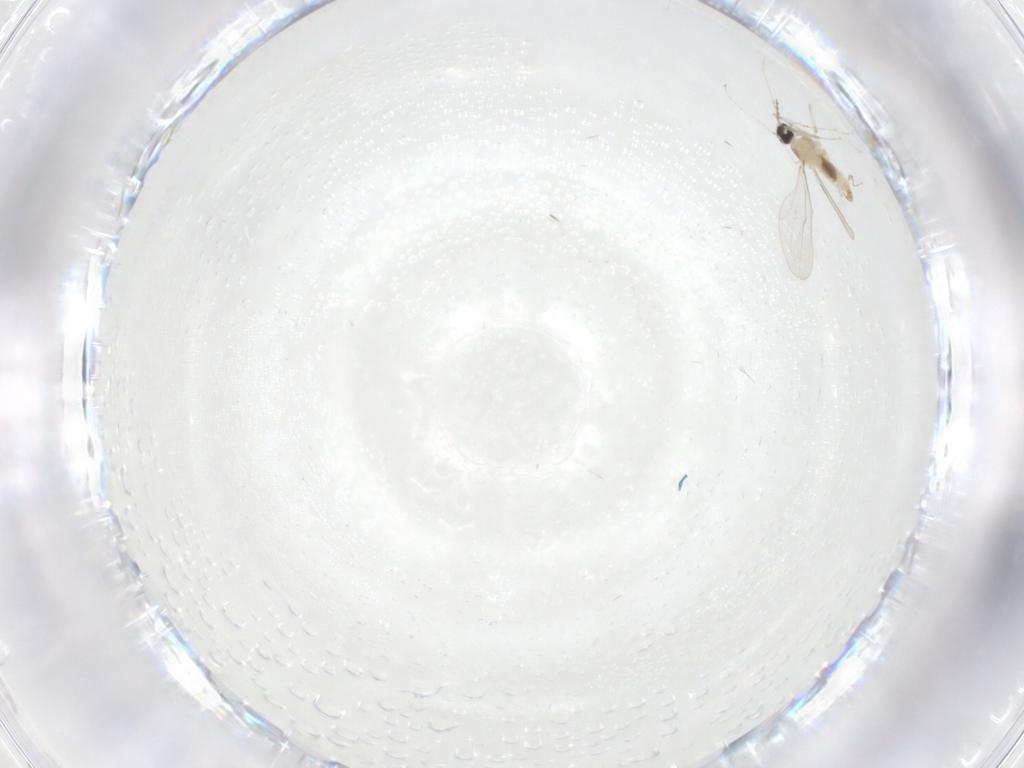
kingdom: Animalia
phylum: Arthropoda
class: Insecta
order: Diptera
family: Cecidomyiidae
